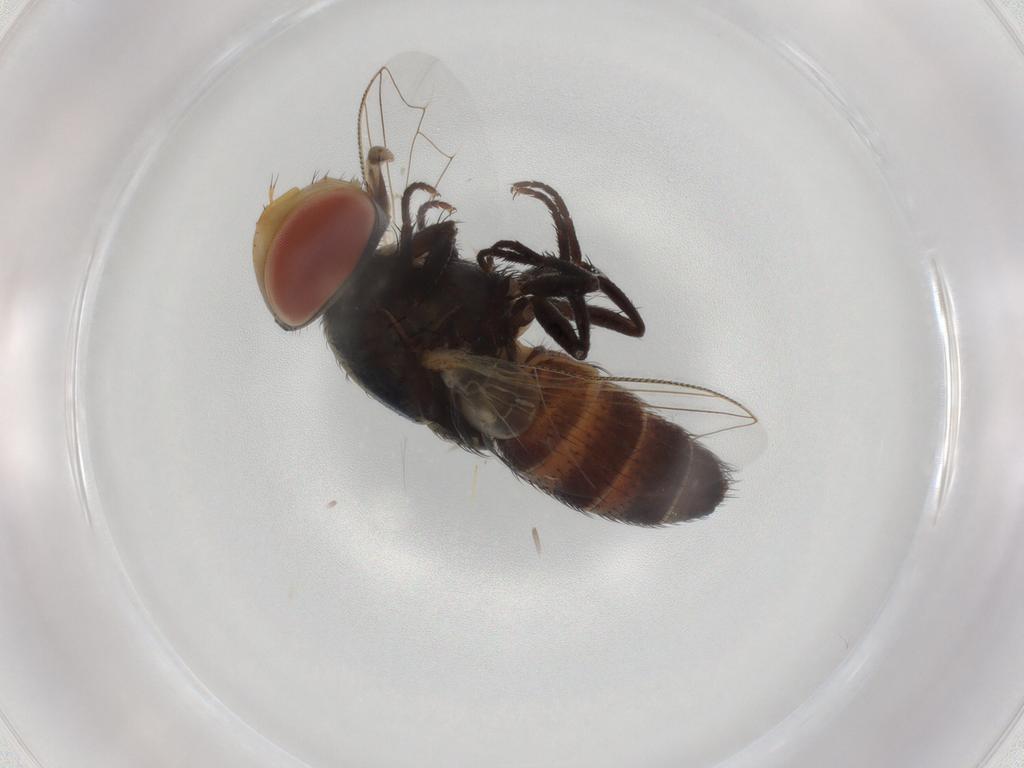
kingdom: Animalia
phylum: Arthropoda
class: Insecta
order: Diptera
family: Sarcophagidae
